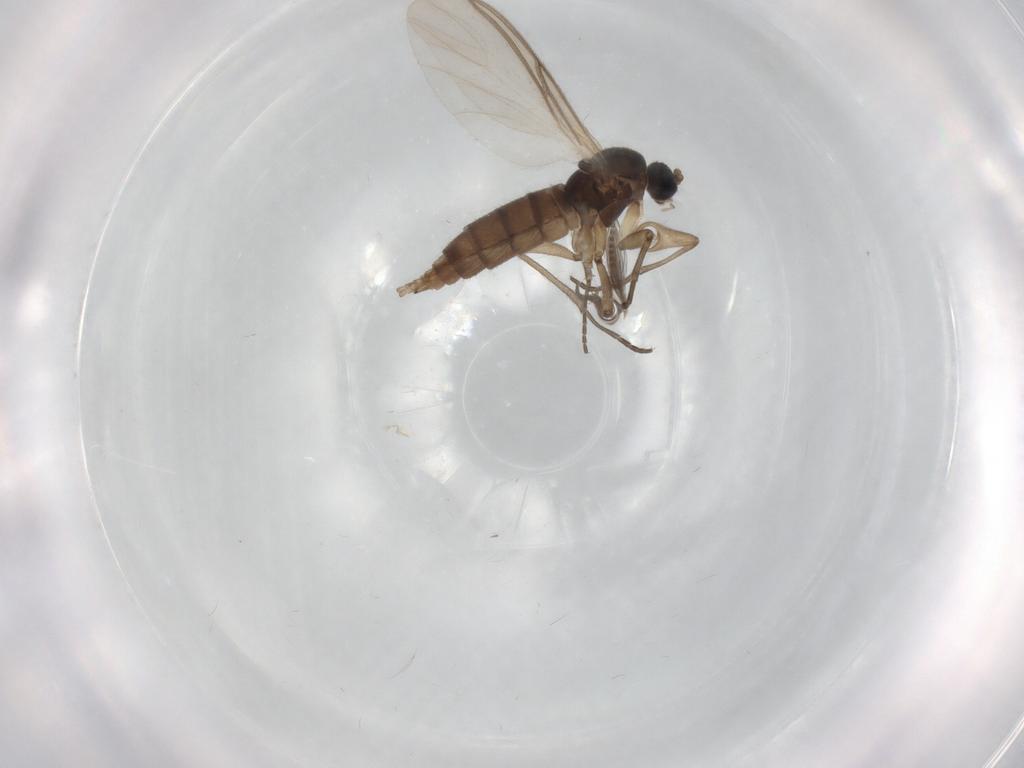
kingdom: Animalia
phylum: Arthropoda
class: Insecta
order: Diptera
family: Sciaridae
